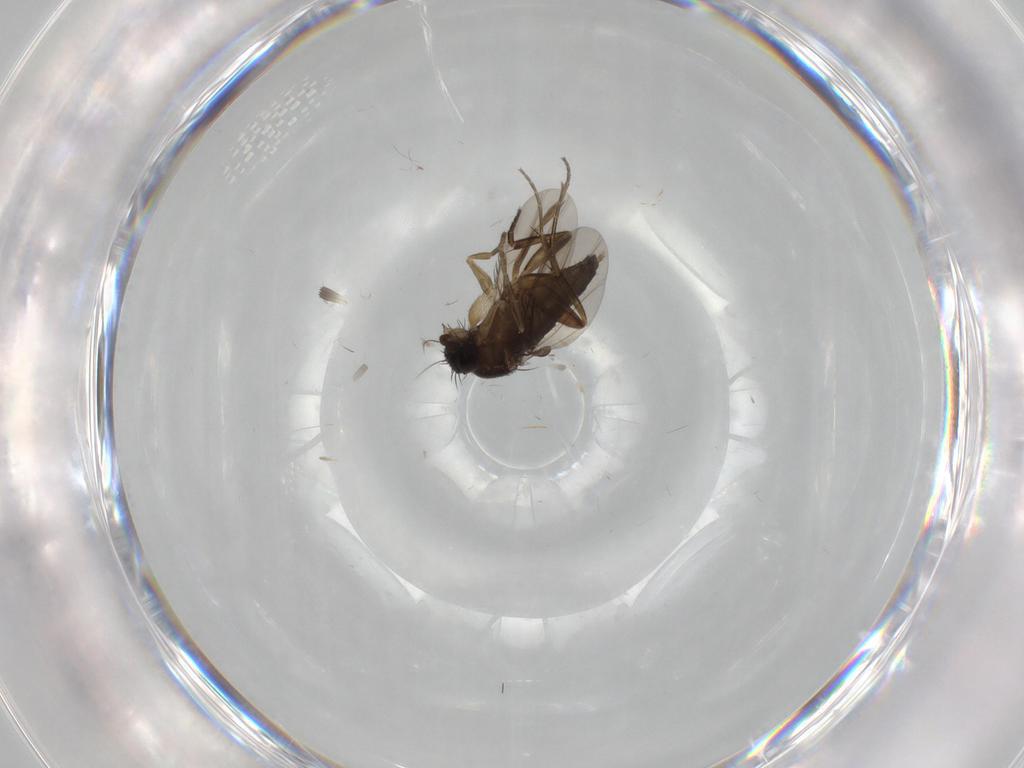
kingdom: Animalia
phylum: Arthropoda
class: Insecta
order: Diptera
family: Phoridae
